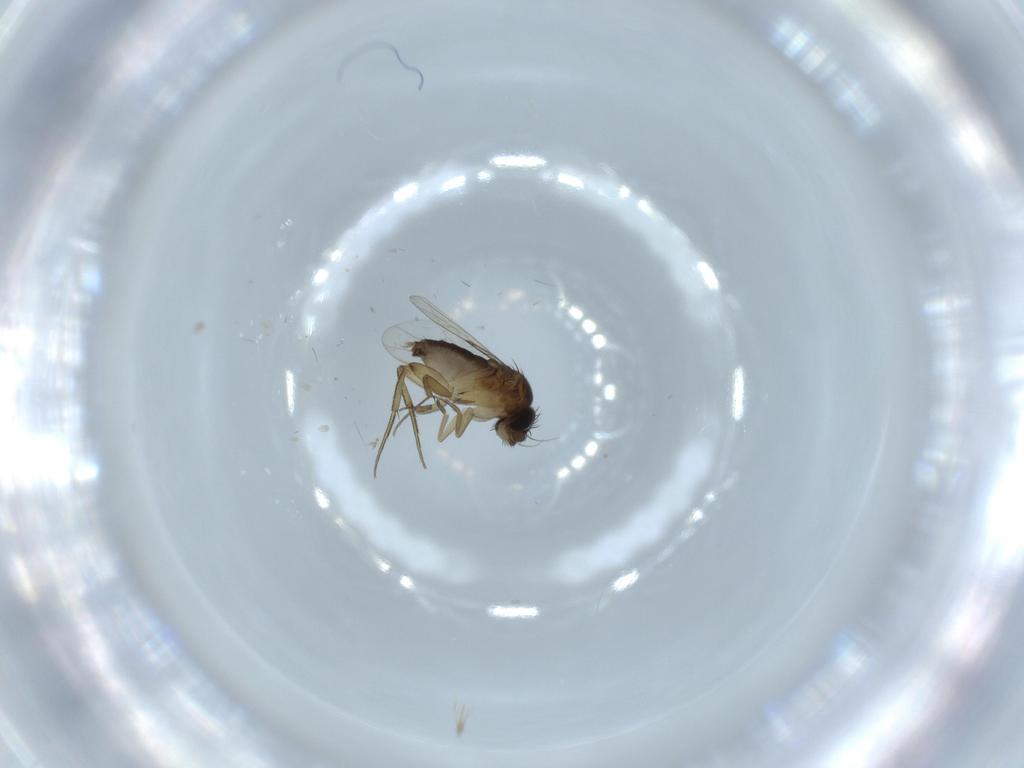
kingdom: Animalia
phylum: Arthropoda
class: Insecta
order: Diptera
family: Phoridae
